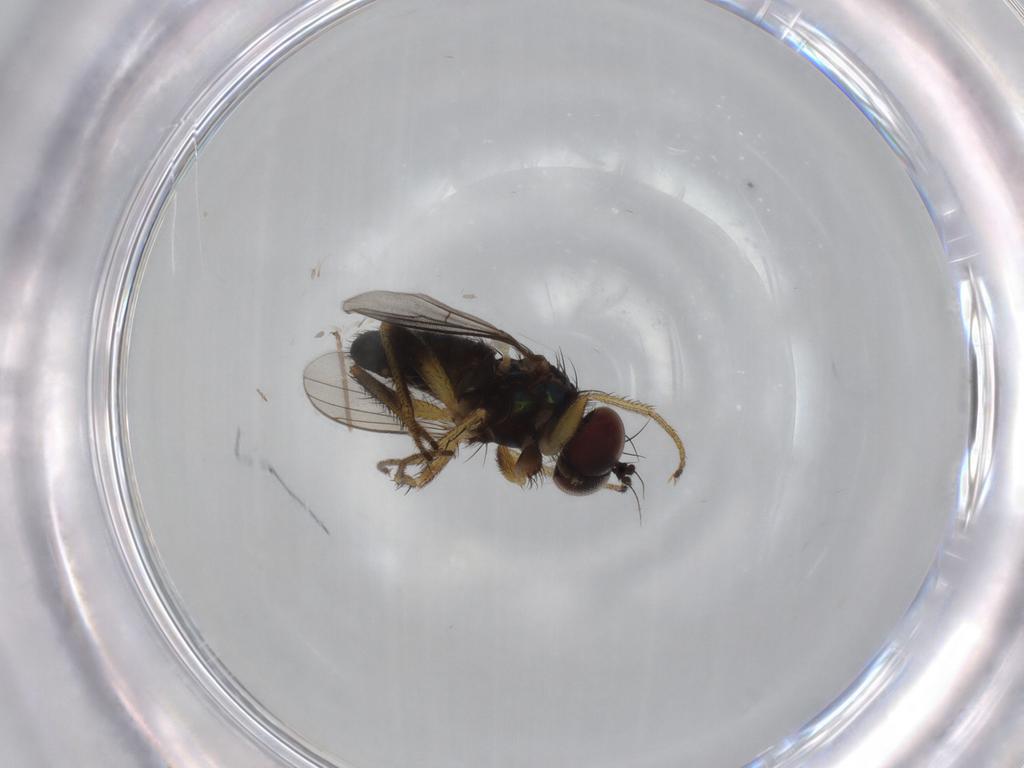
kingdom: Animalia
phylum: Arthropoda
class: Insecta
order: Diptera
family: Dolichopodidae
